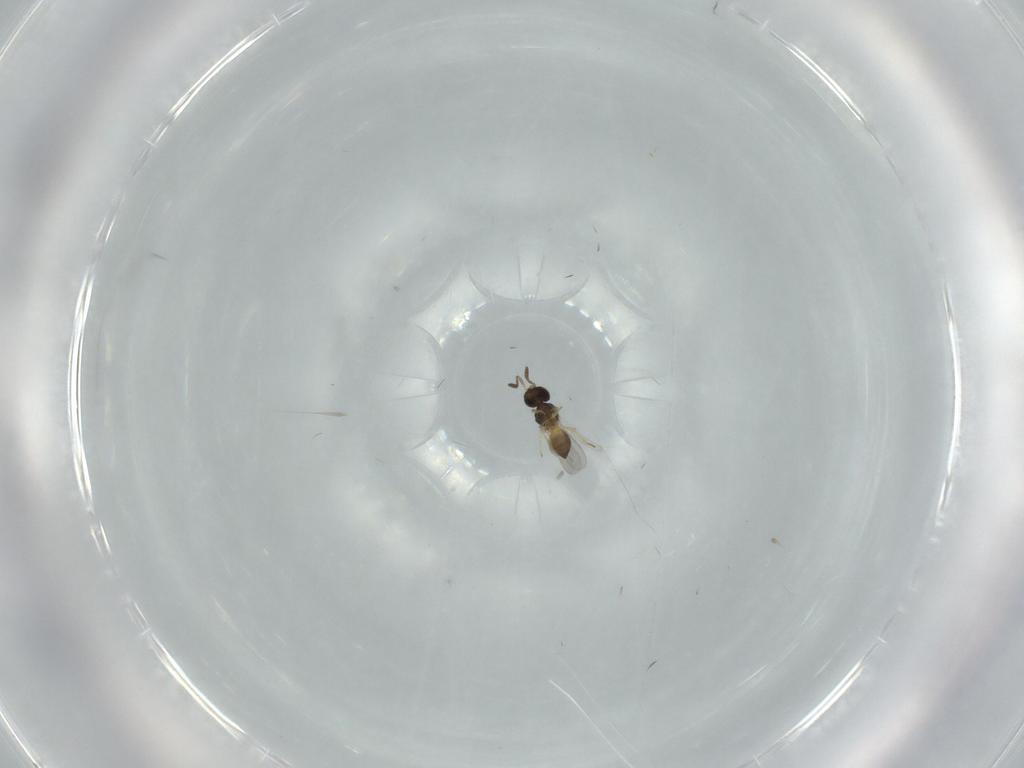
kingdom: Animalia
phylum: Arthropoda
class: Insecta
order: Hymenoptera
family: Scelionidae
